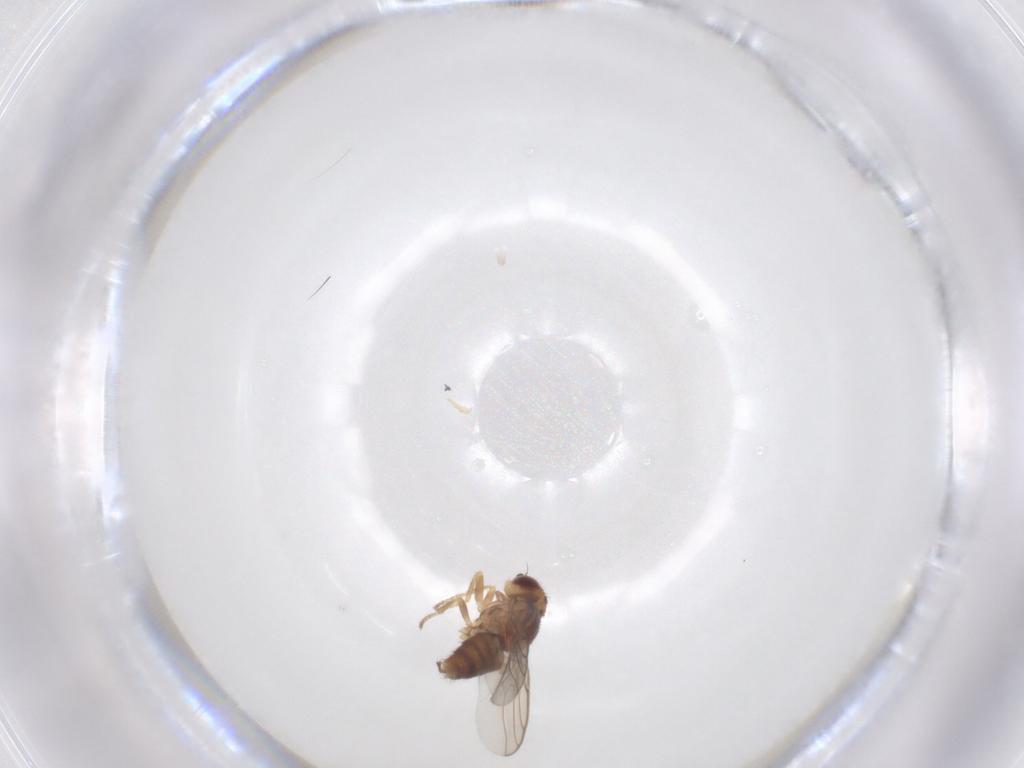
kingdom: Animalia
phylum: Arthropoda
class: Insecta
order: Diptera
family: Chloropidae
